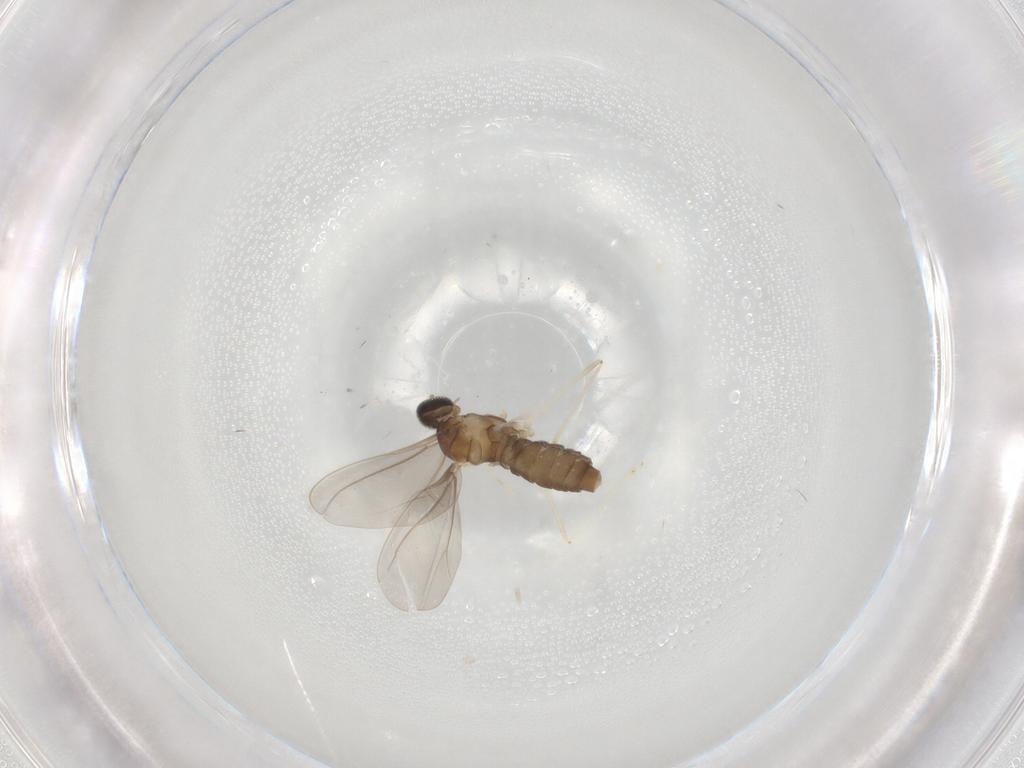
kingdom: Animalia
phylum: Arthropoda
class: Insecta
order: Diptera
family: Cecidomyiidae
